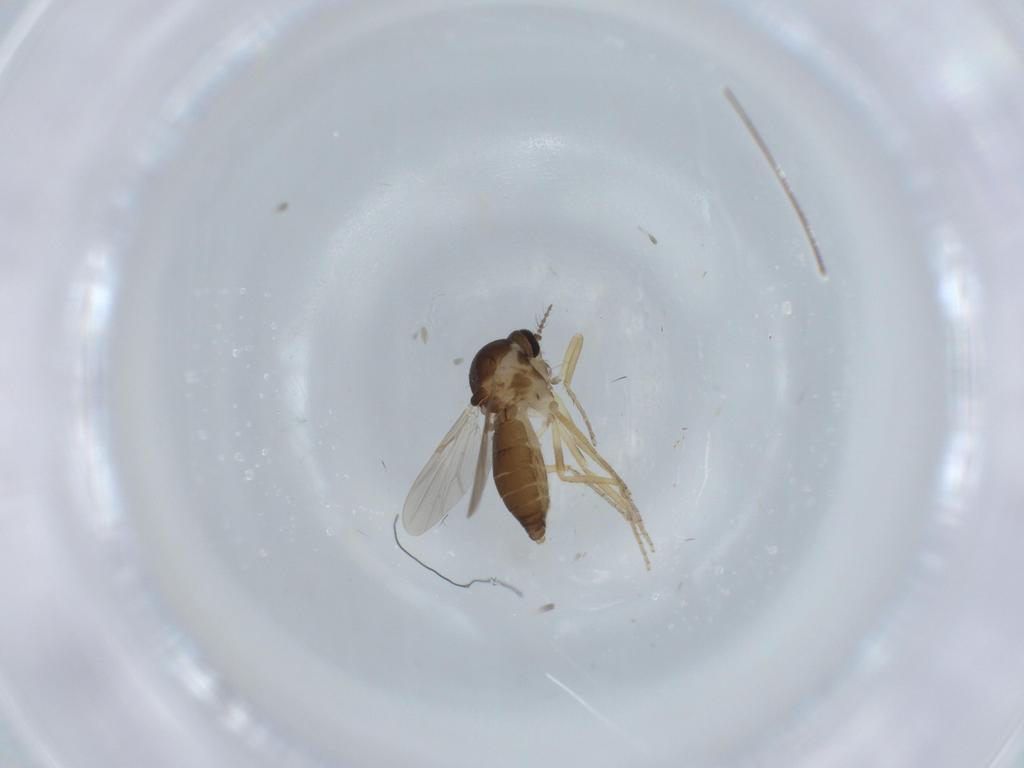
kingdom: Animalia
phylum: Arthropoda
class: Insecta
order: Diptera
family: Ceratopogonidae
